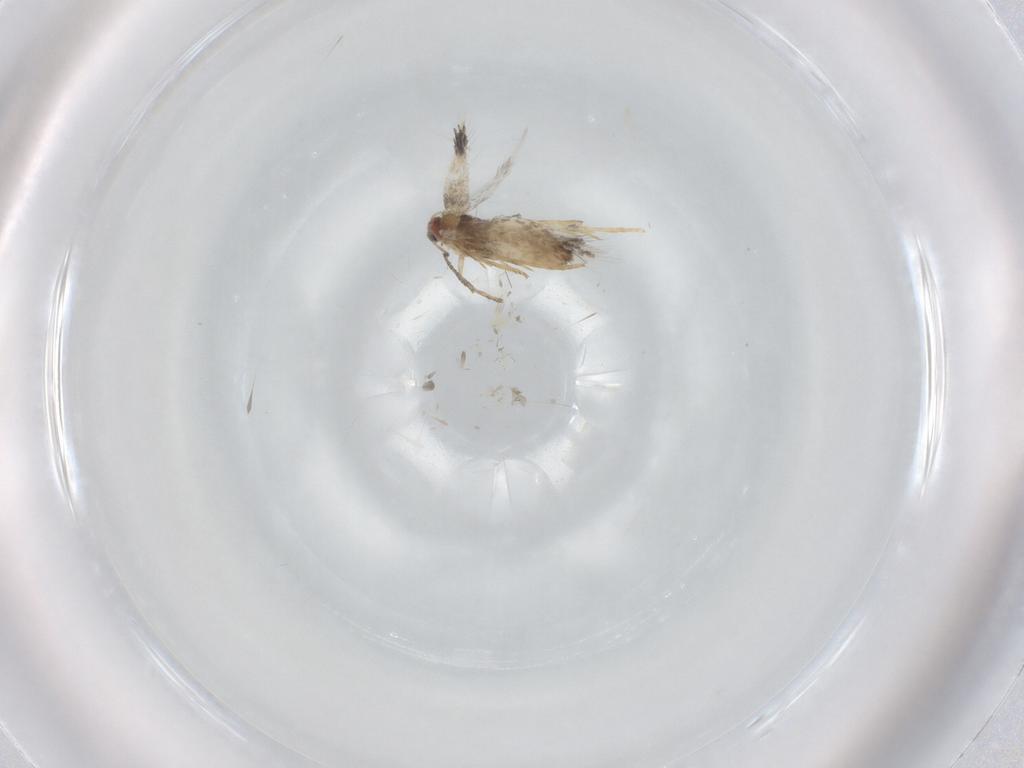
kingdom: Animalia
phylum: Arthropoda
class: Insecta
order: Lepidoptera
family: Nepticulidae
